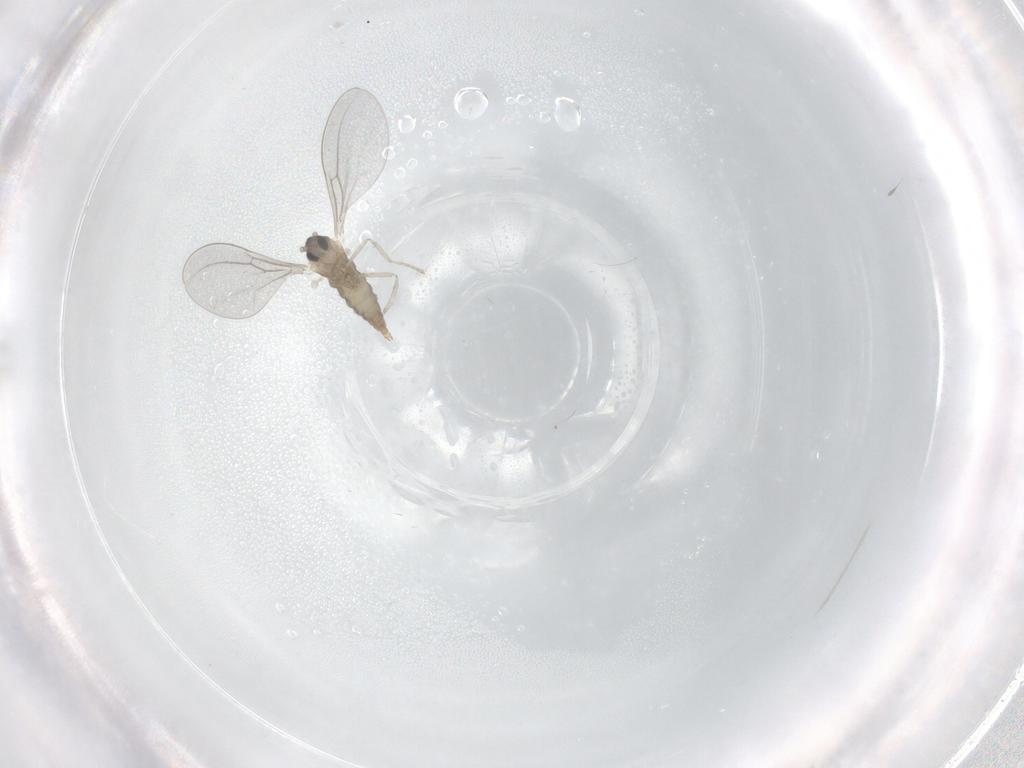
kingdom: Animalia
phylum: Arthropoda
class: Insecta
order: Diptera
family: Cecidomyiidae
